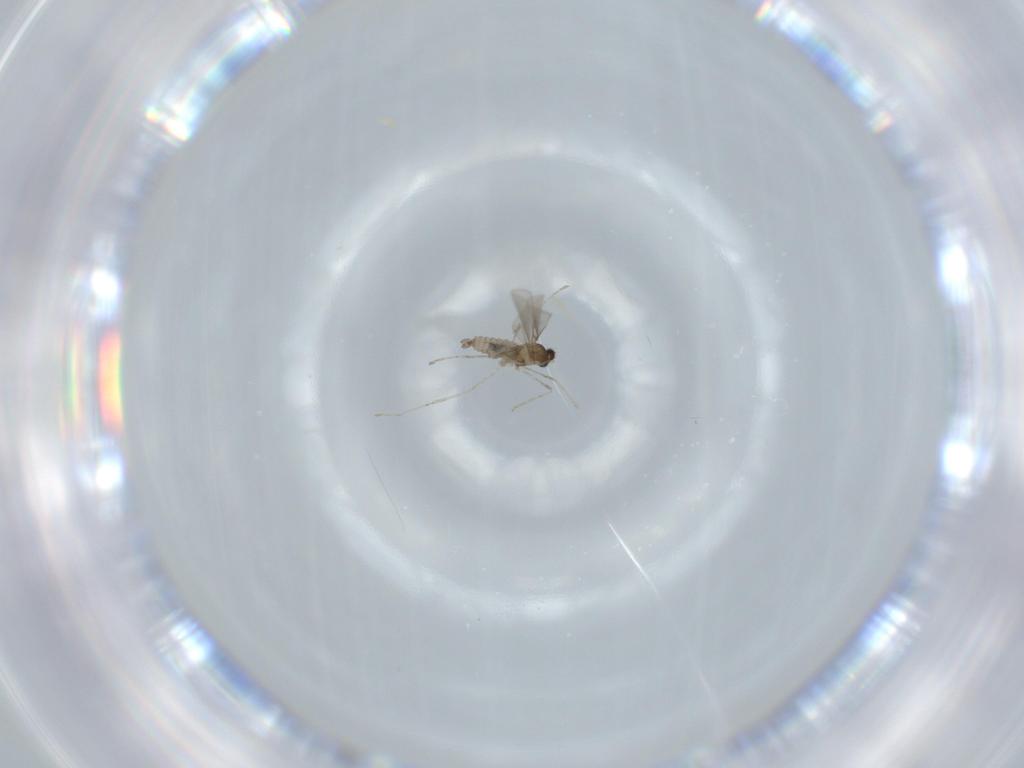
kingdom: Animalia
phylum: Arthropoda
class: Insecta
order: Diptera
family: Cecidomyiidae
